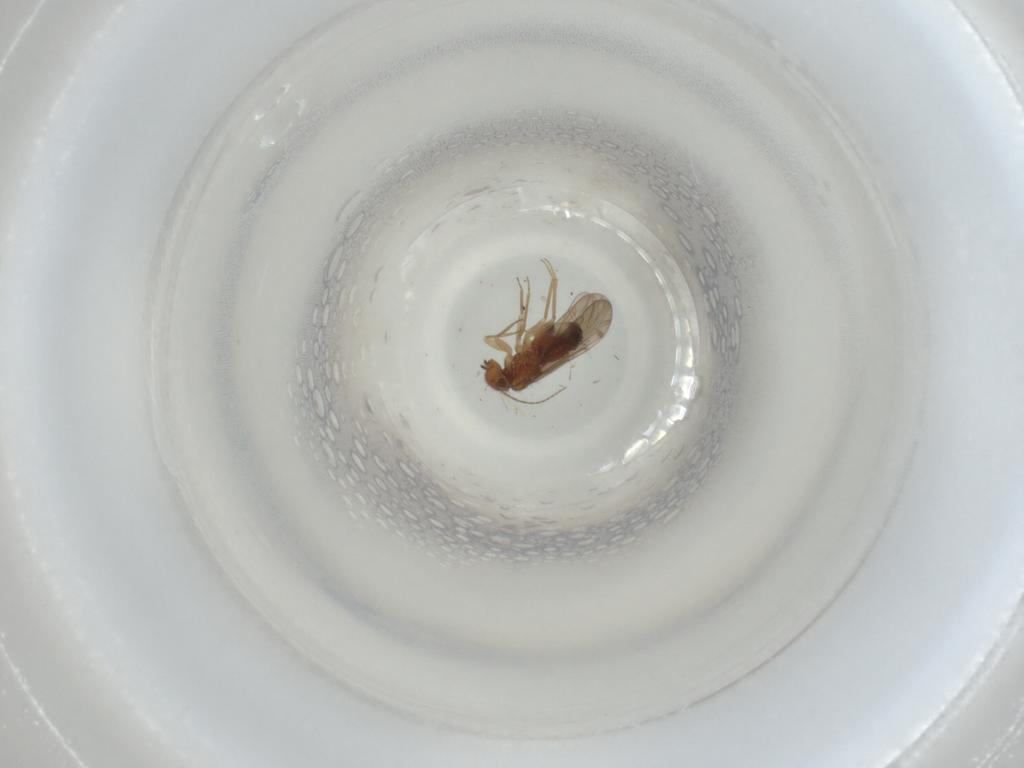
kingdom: Animalia
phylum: Arthropoda
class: Insecta
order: Psocodea
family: Ectopsocidae
